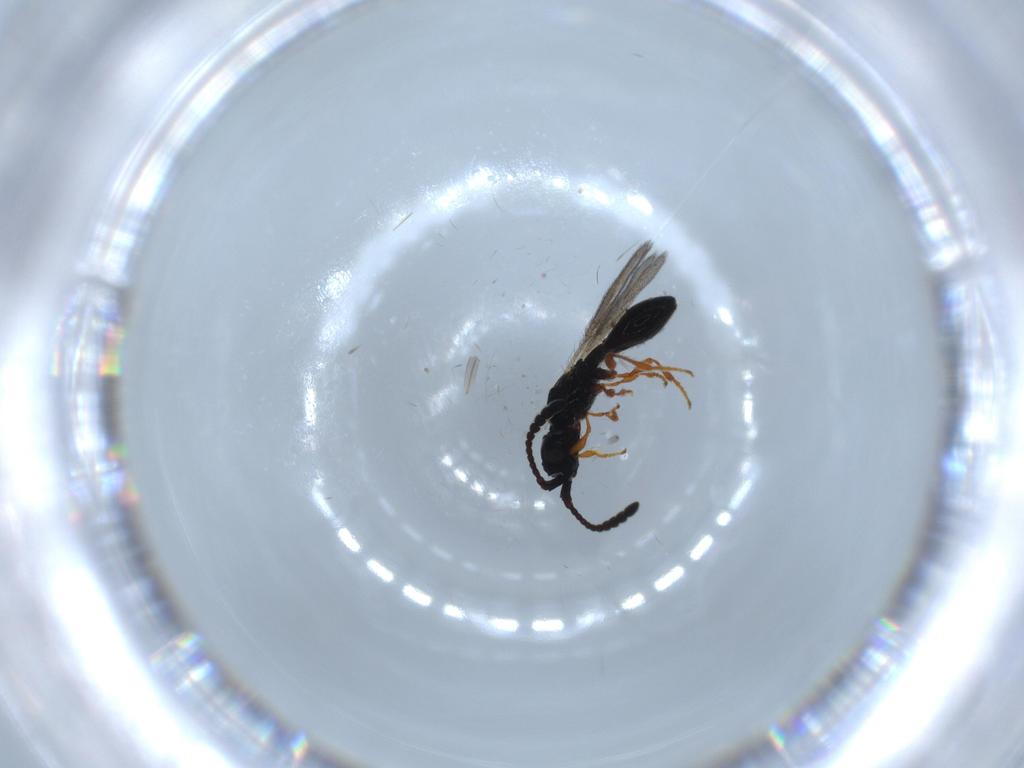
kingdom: Animalia
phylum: Arthropoda
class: Insecta
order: Hymenoptera
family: Diapriidae
